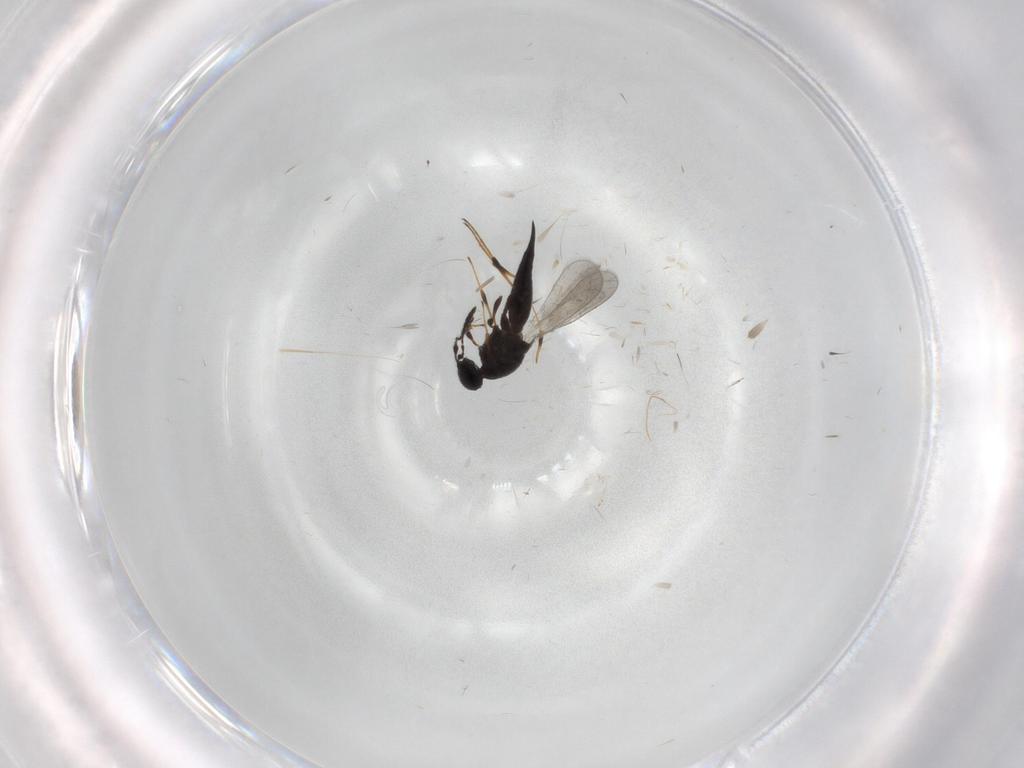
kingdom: Animalia
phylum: Arthropoda
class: Insecta
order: Hymenoptera
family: Platygastridae
